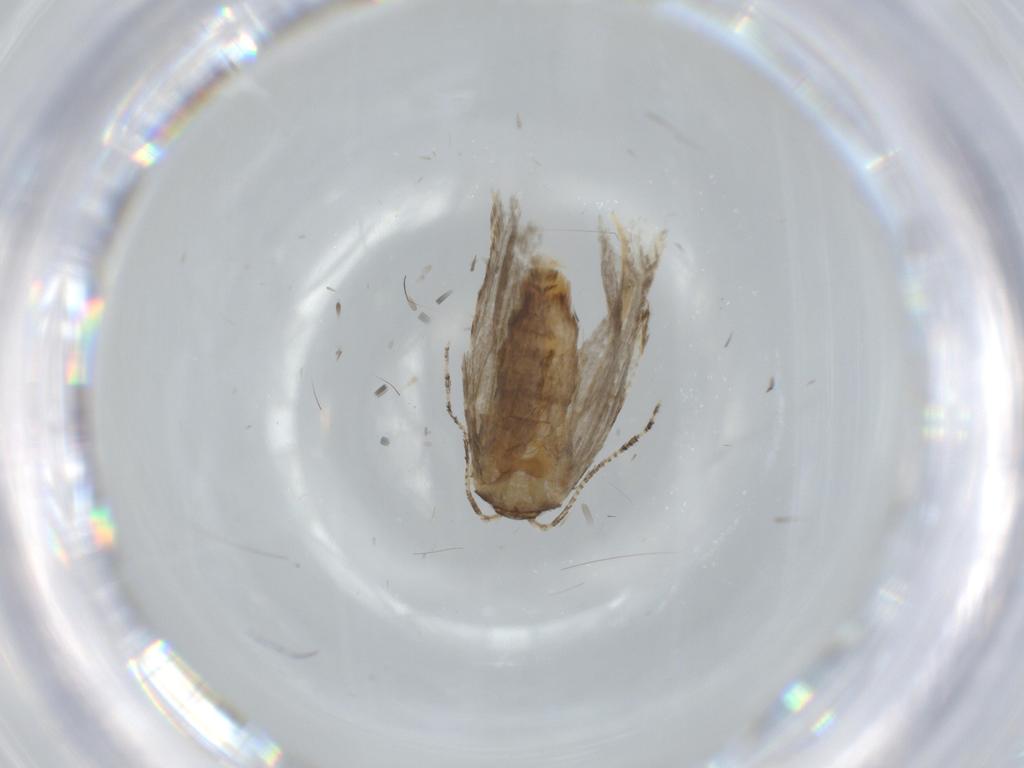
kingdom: Animalia
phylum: Arthropoda
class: Insecta
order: Lepidoptera
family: Tineidae
